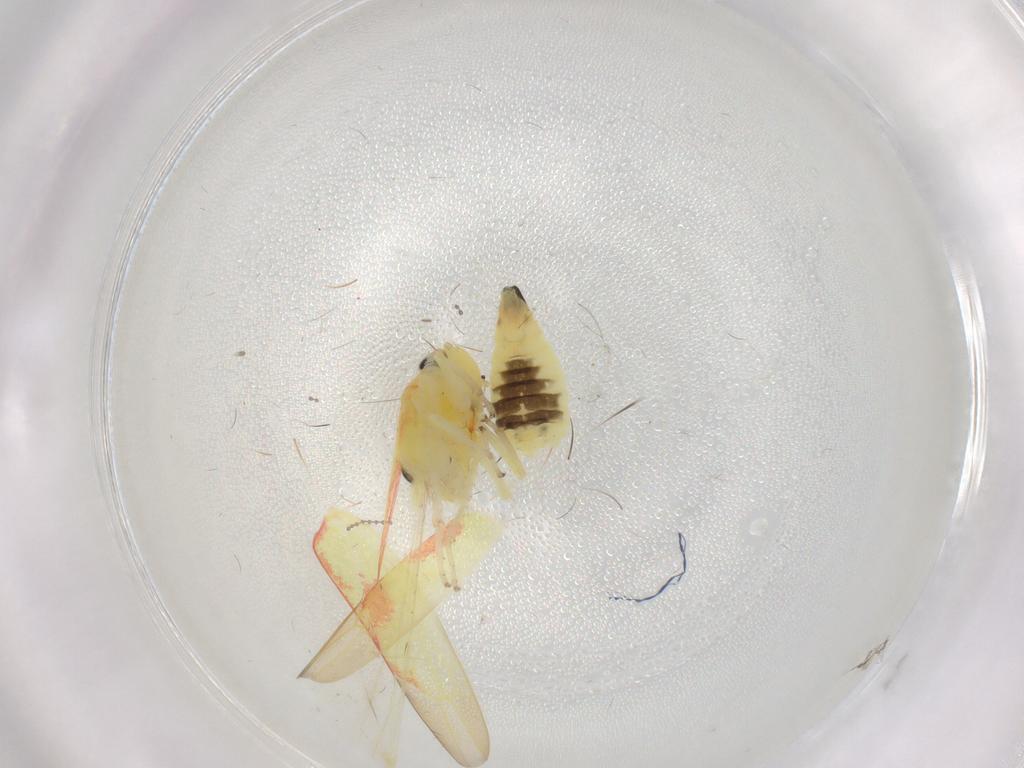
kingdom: Animalia
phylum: Arthropoda
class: Insecta
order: Hemiptera
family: Cicadellidae
